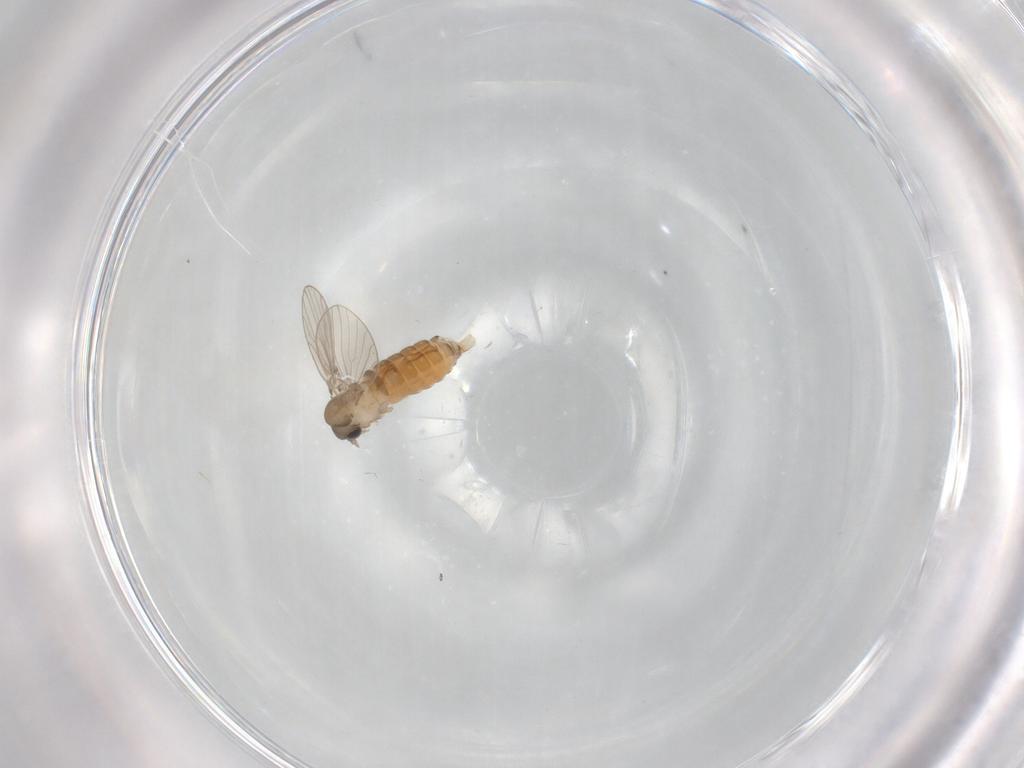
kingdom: Animalia
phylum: Arthropoda
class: Insecta
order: Diptera
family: Psychodidae
